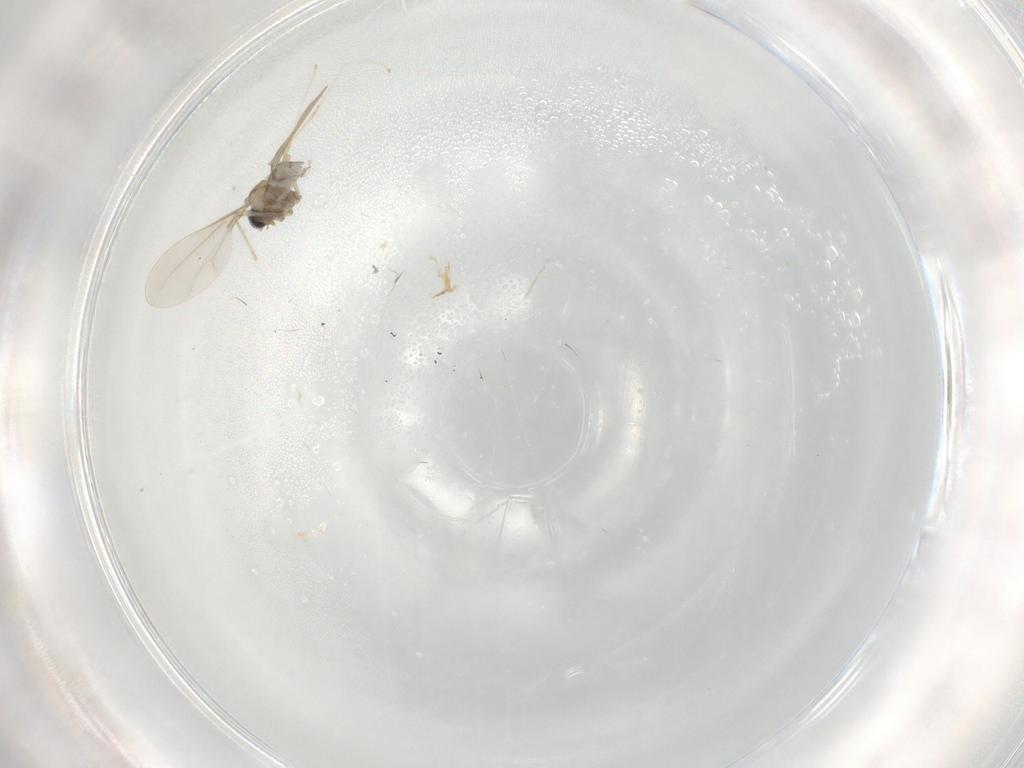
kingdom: Animalia
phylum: Arthropoda
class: Insecta
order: Diptera
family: Cecidomyiidae
